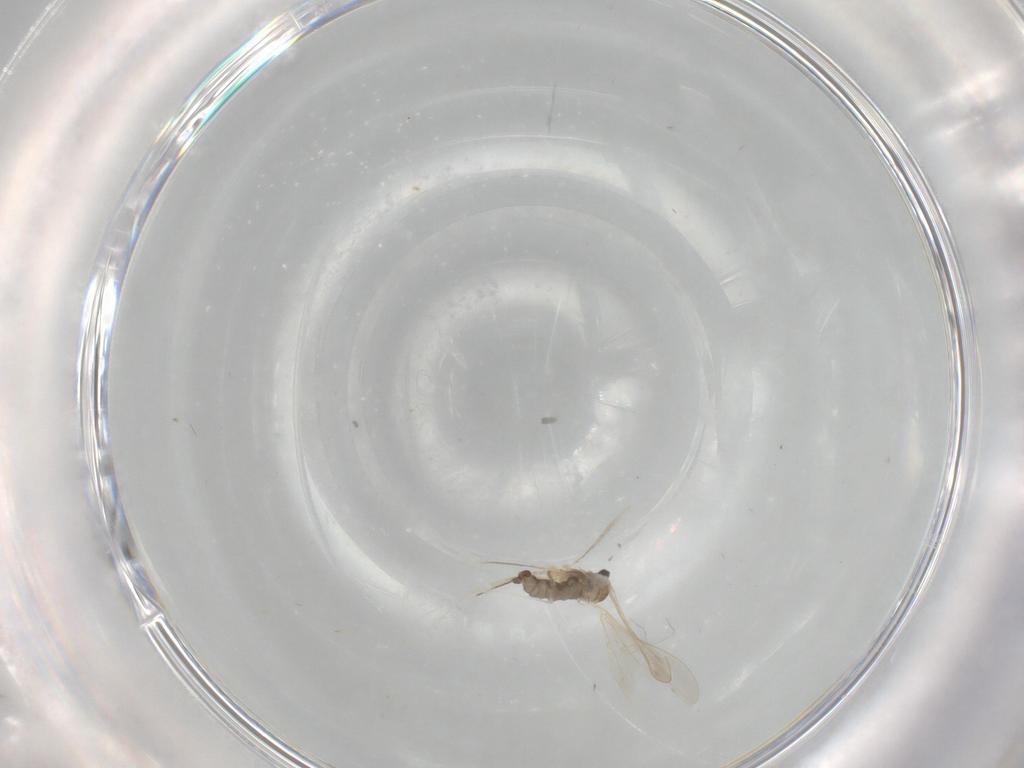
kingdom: Animalia
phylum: Arthropoda
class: Insecta
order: Diptera
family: Cecidomyiidae
